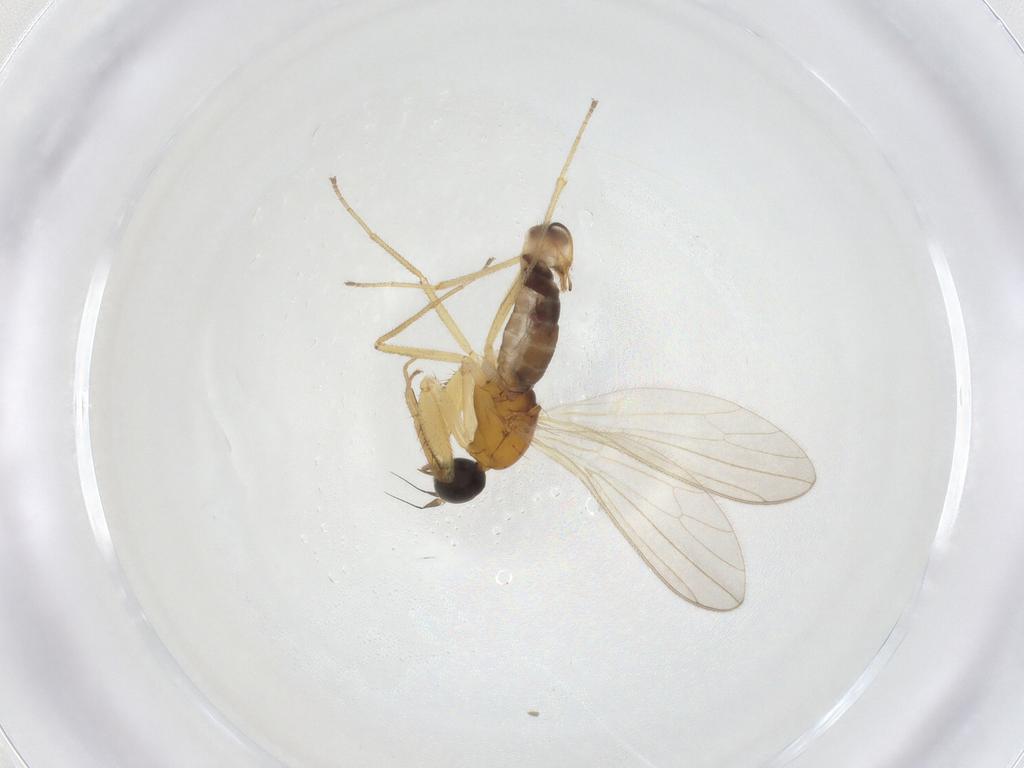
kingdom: Animalia
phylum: Arthropoda
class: Insecta
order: Diptera
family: Empididae
